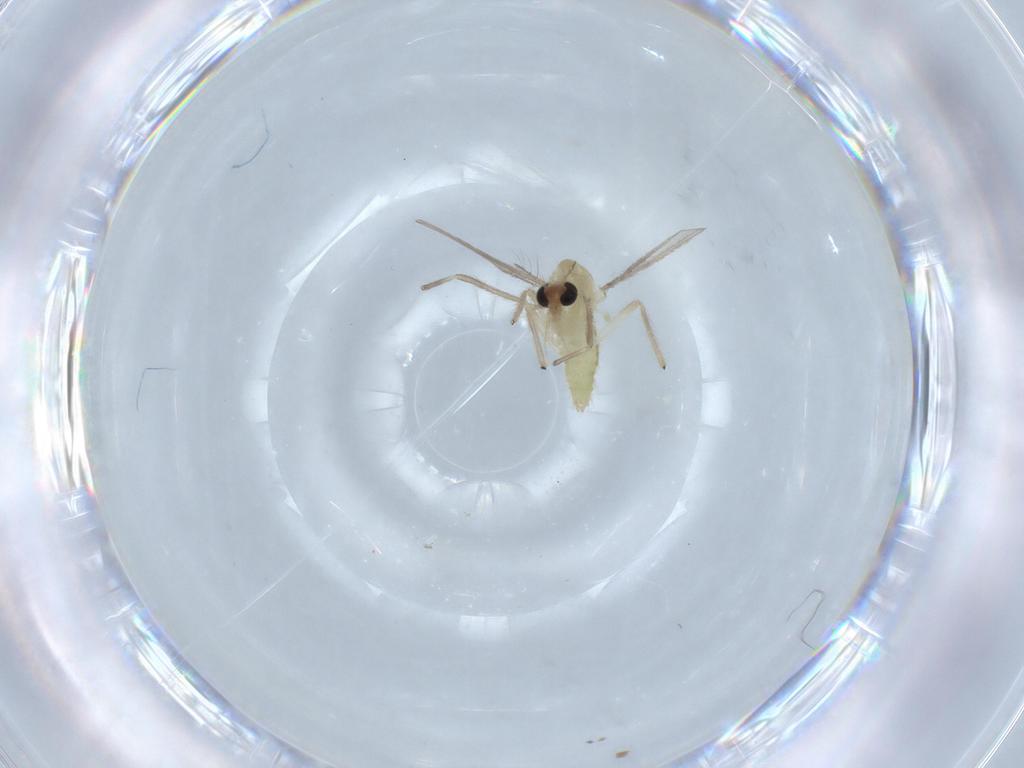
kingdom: Animalia
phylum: Arthropoda
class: Insecta
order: Diptera
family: Chironomidae
